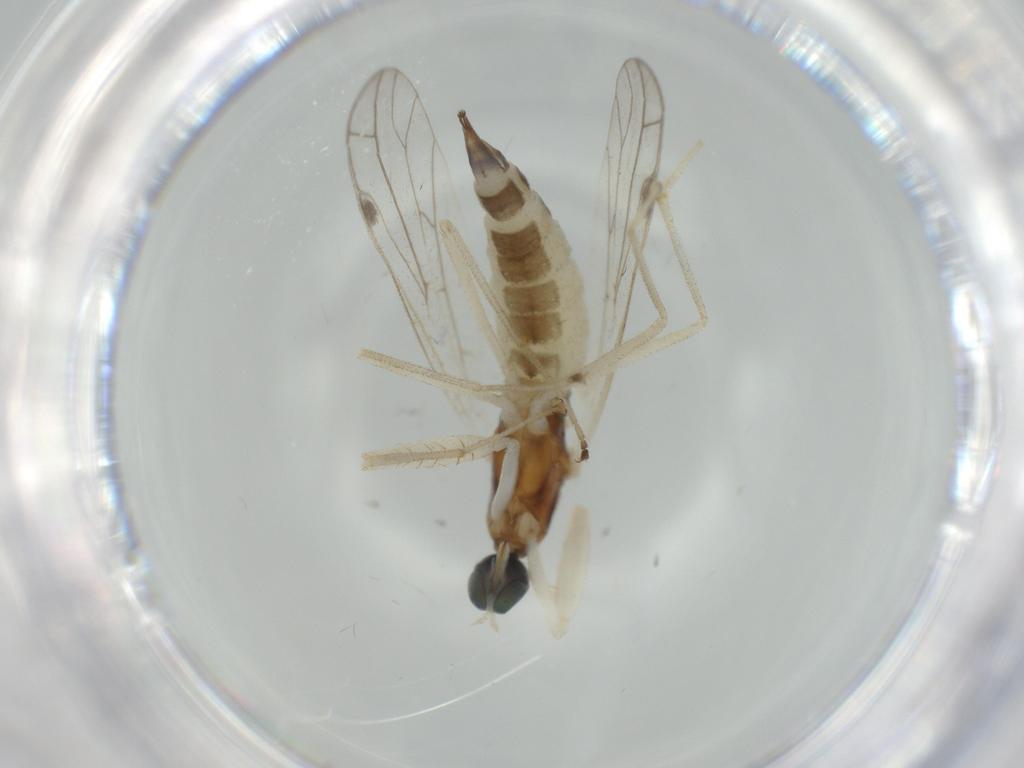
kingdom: Animalia
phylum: Arthropoda
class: Insecta
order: Diptera
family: Empididae
